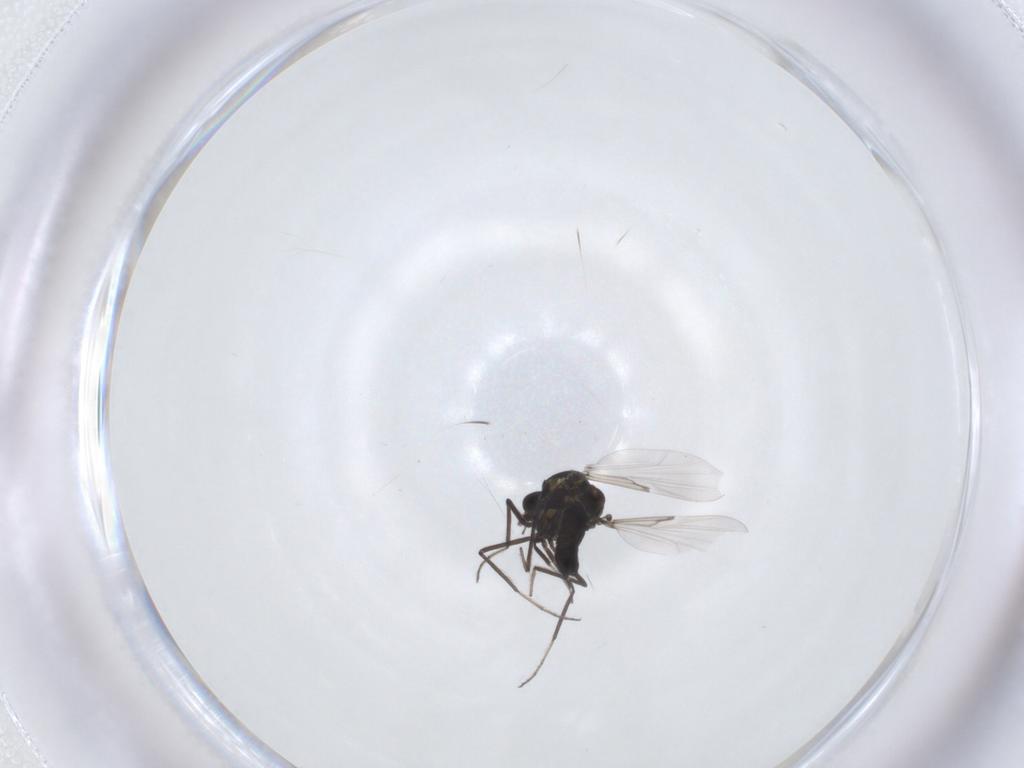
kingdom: Animalia
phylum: Arthropoda
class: Insecta
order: Diptera
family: Ceratopogonidae
